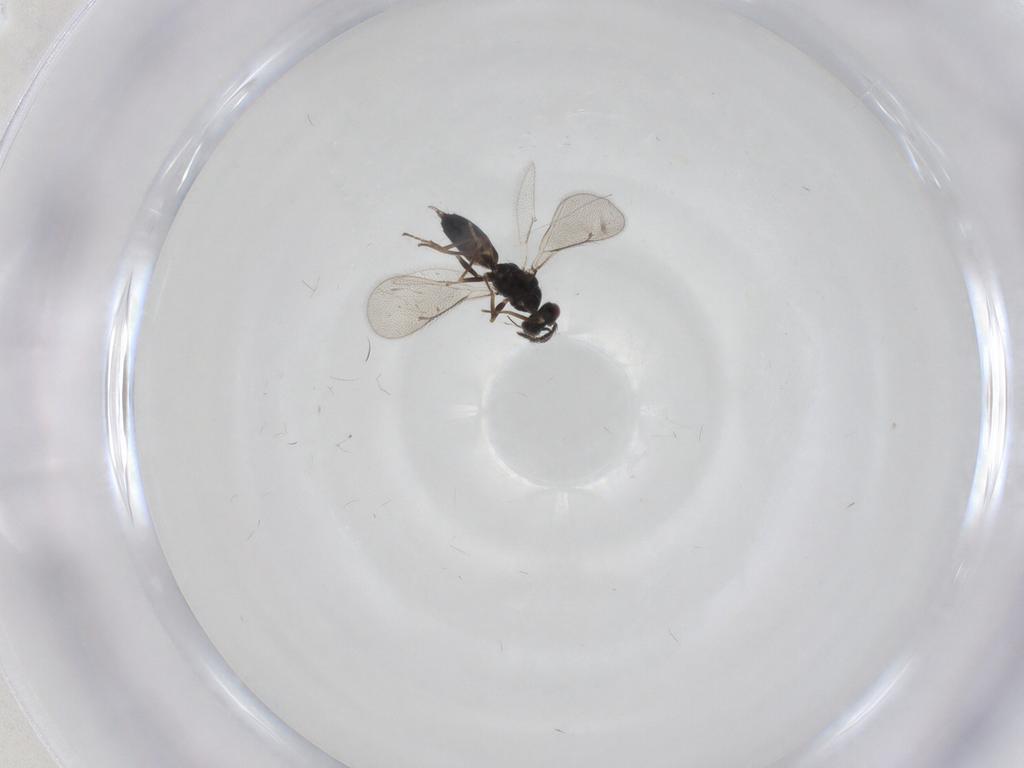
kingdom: Animalia
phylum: Arthropoda
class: Insecta
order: Hymenoptera
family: Eulophidae
